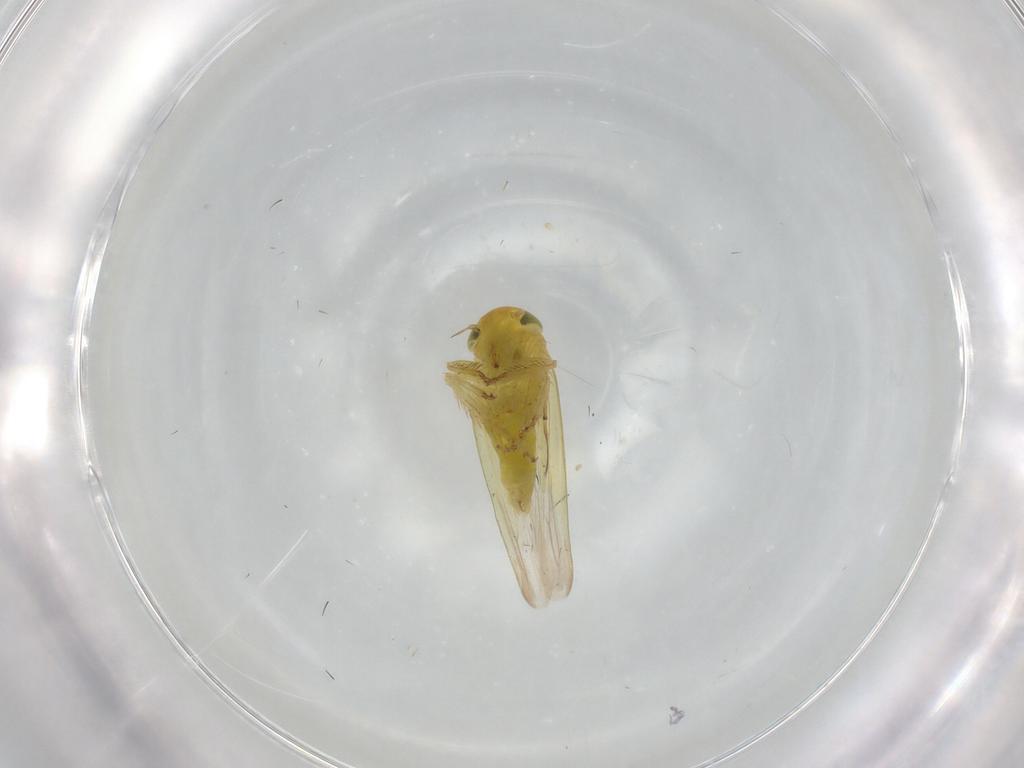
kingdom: Animalia
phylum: Arthropoda
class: Insecta
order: Hemiptera
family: Cicadellidae
